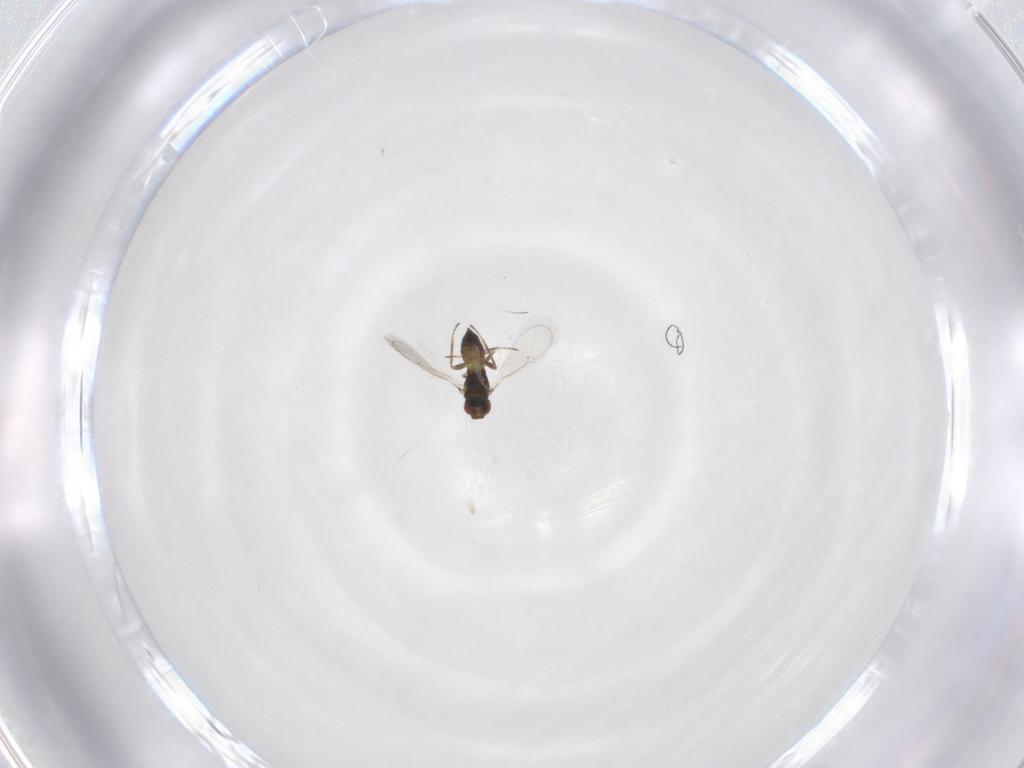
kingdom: Animalia
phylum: Arthropoda
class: Insecta
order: Hymenoptera
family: Eulophidae
